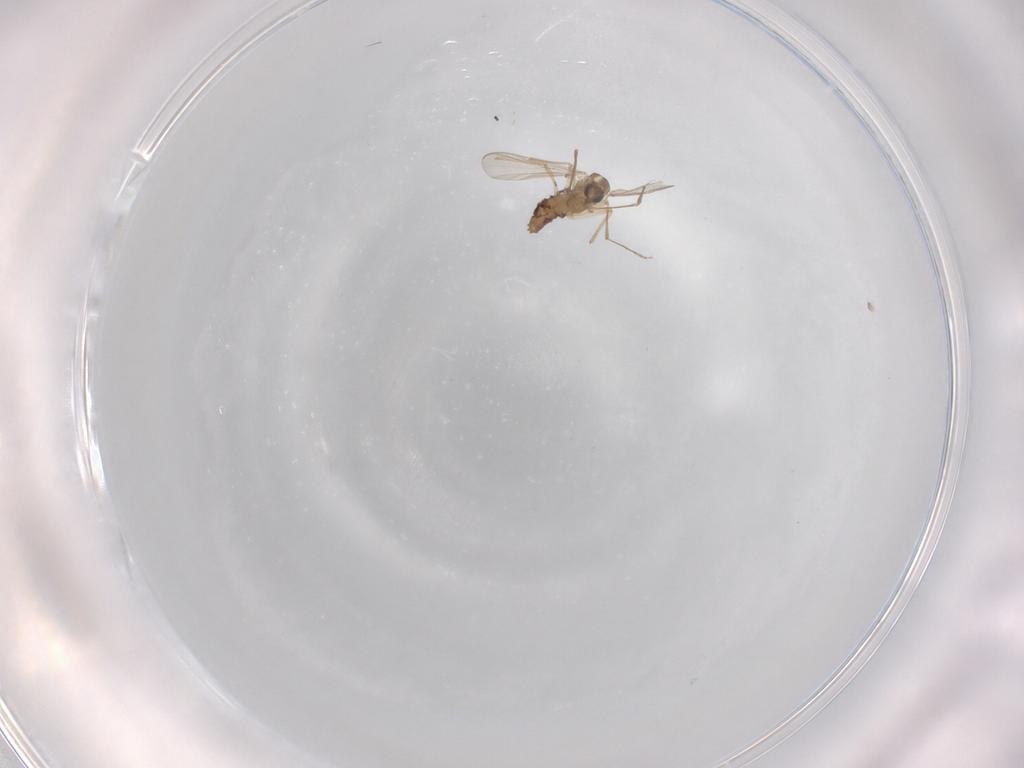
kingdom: Animalia
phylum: Arthropoda
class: Insecta
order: Diptera
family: Chironomidae
